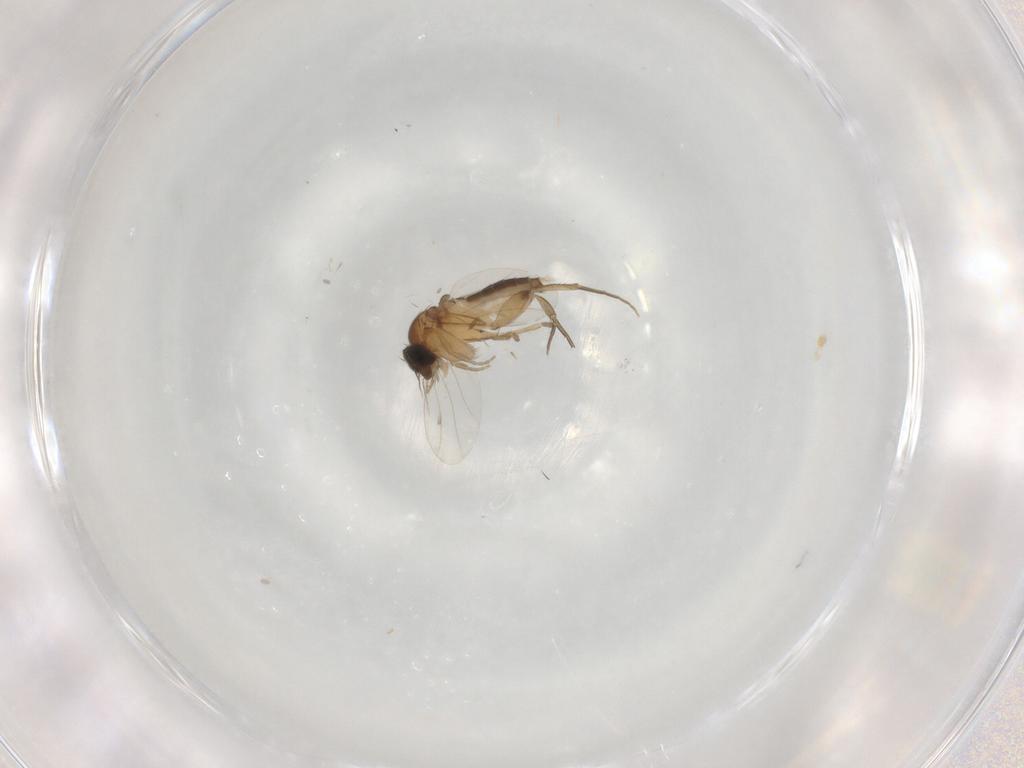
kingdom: Animalia
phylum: Arthropoda
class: Insecta
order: Diptera
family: Phoridae
